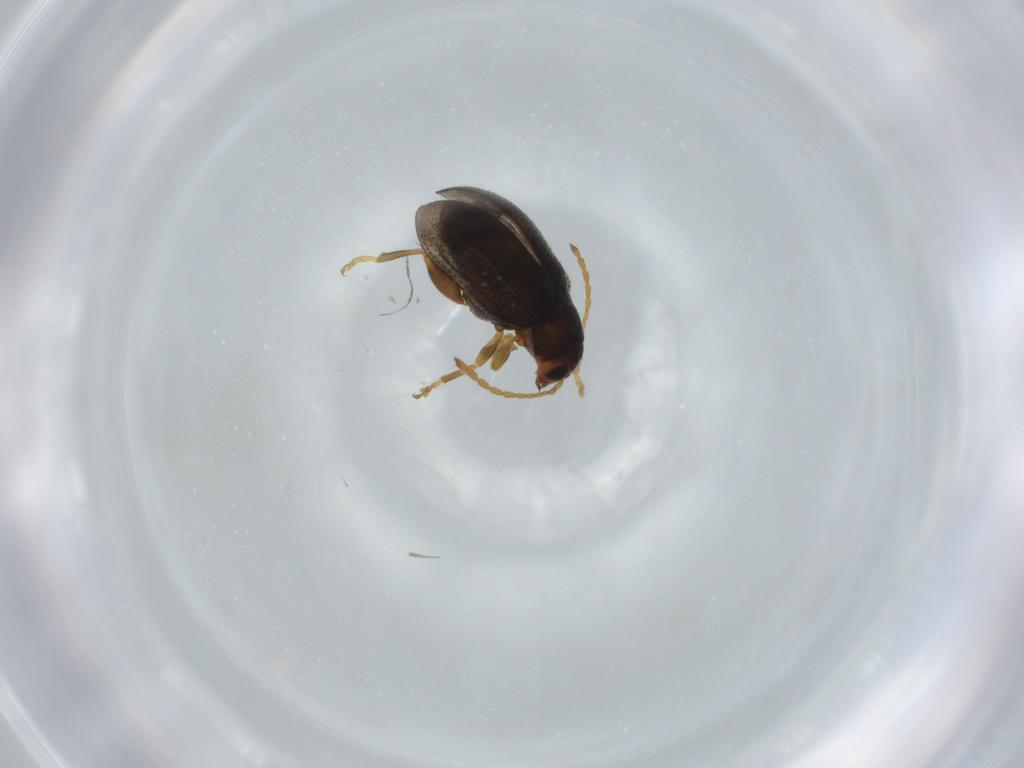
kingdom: Animalia
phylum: Arthropoda
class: Insecta
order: Coleoptera
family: Chrysomelidae
